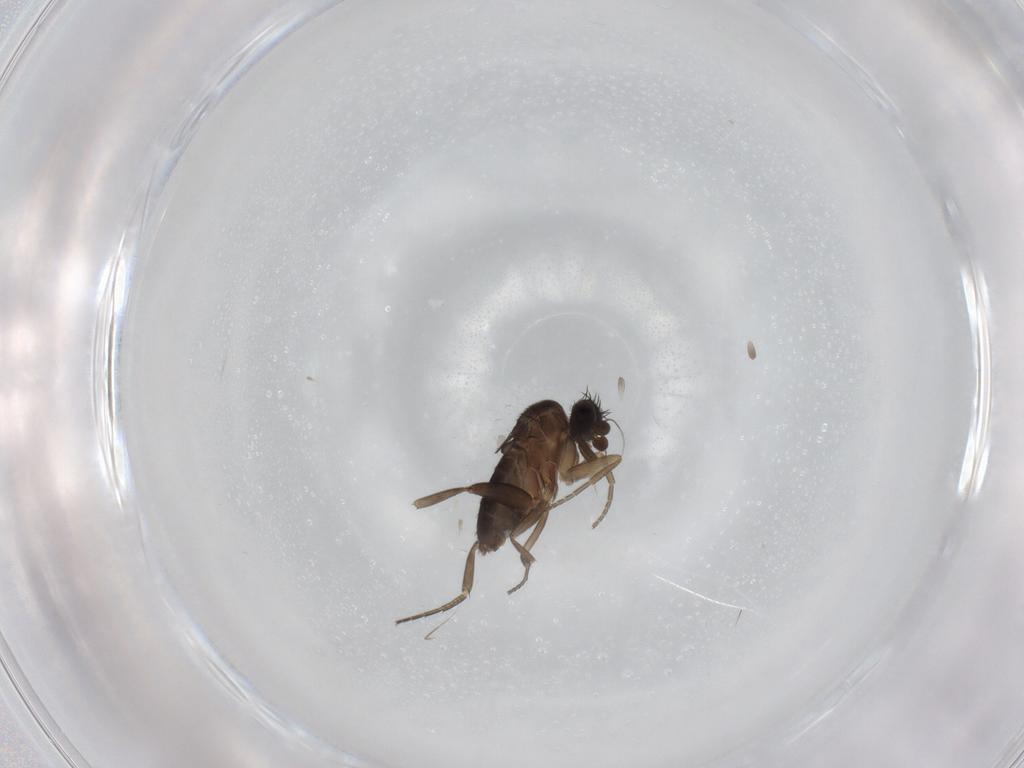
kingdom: Animalia
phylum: Arthropoda
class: Insecta
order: Diptera
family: Phoridae
